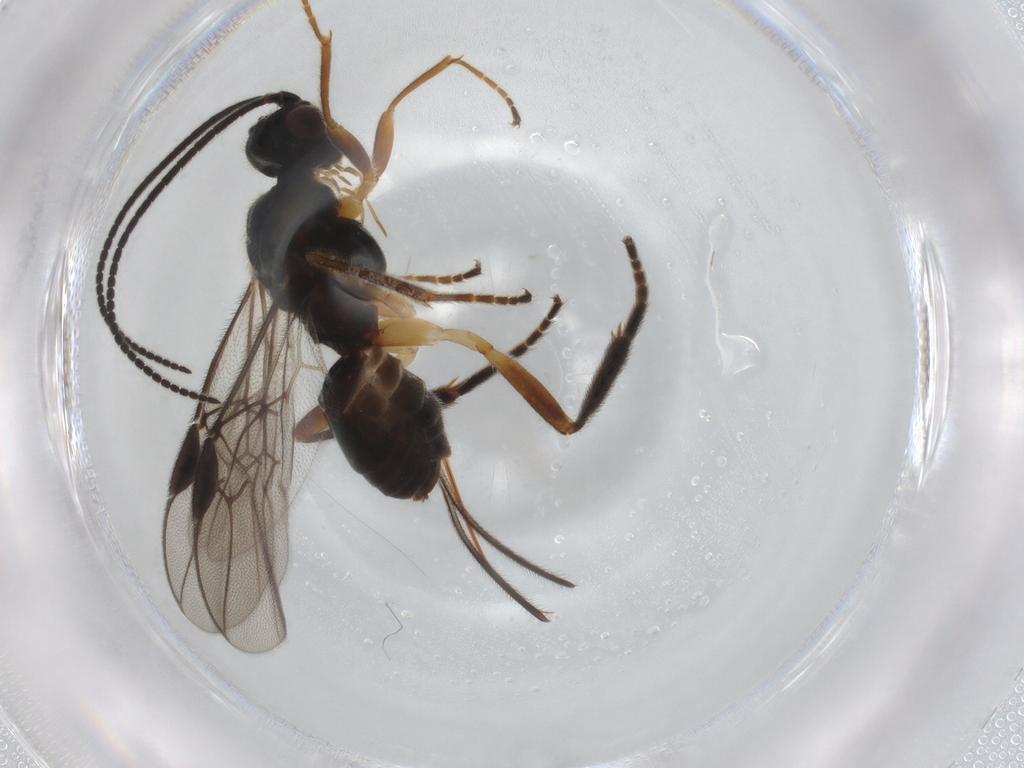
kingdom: Animalia
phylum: Arthropoda
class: Insecta
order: Hymenoptera
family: Braconidae
